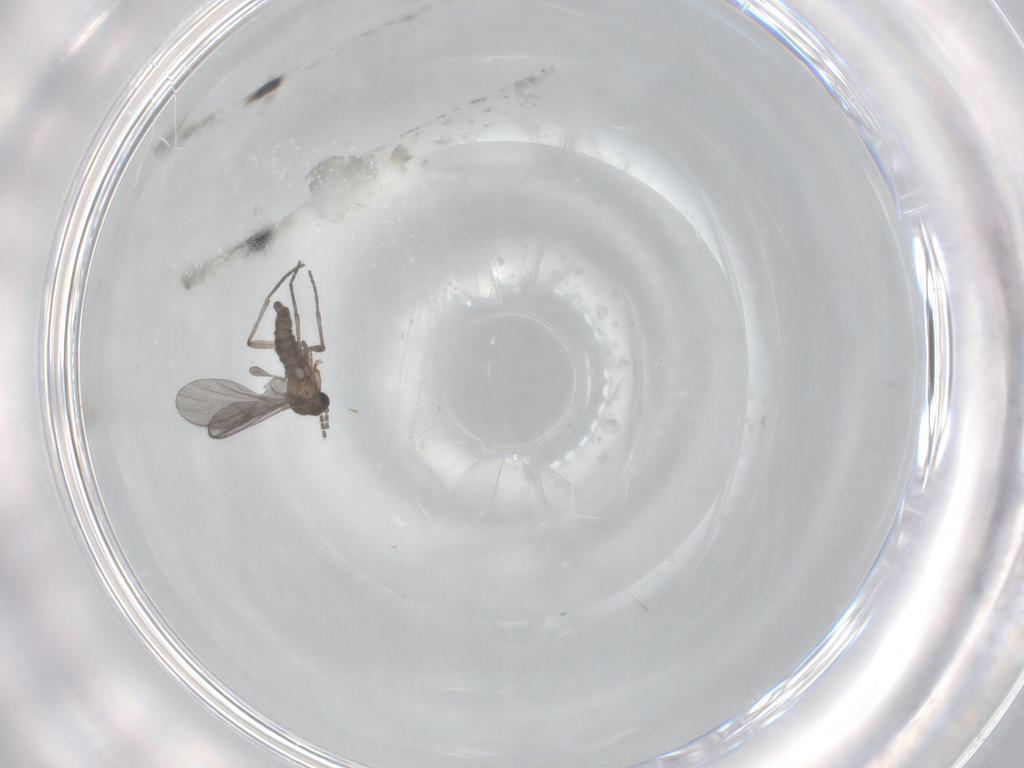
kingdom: Animalia
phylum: Arthropoda
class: Insecta
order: Diptera
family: Sciaridae
